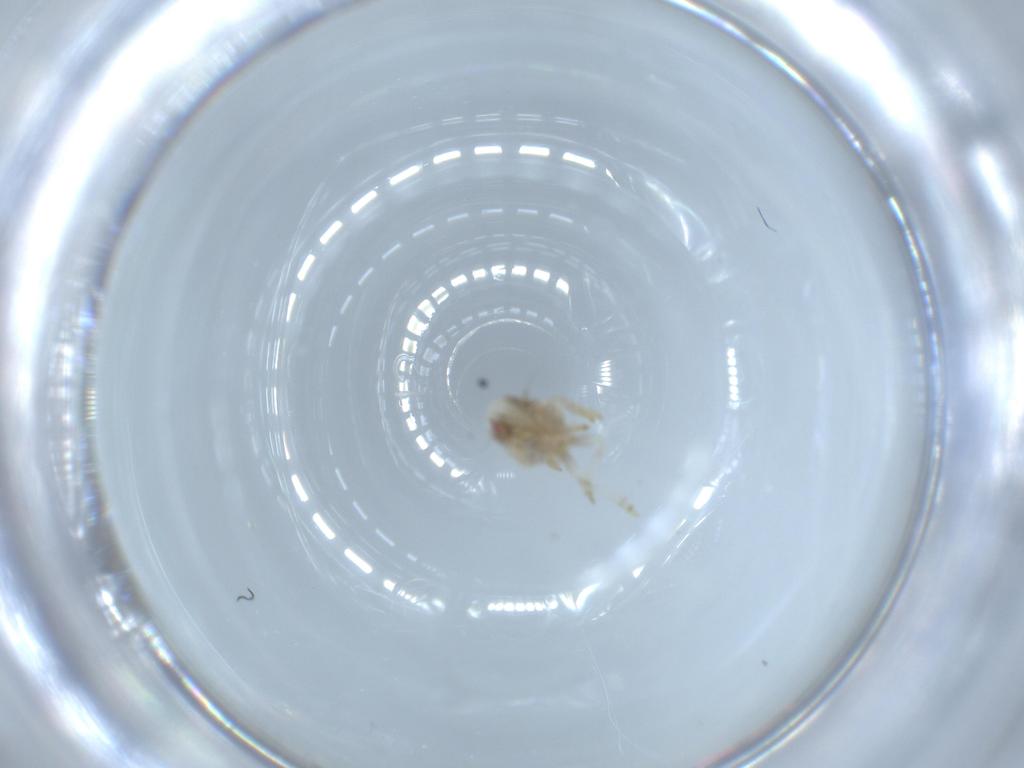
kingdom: Animalia
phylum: Arthropoda
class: Insecta
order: Hemiptera
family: Acanaloniidae
